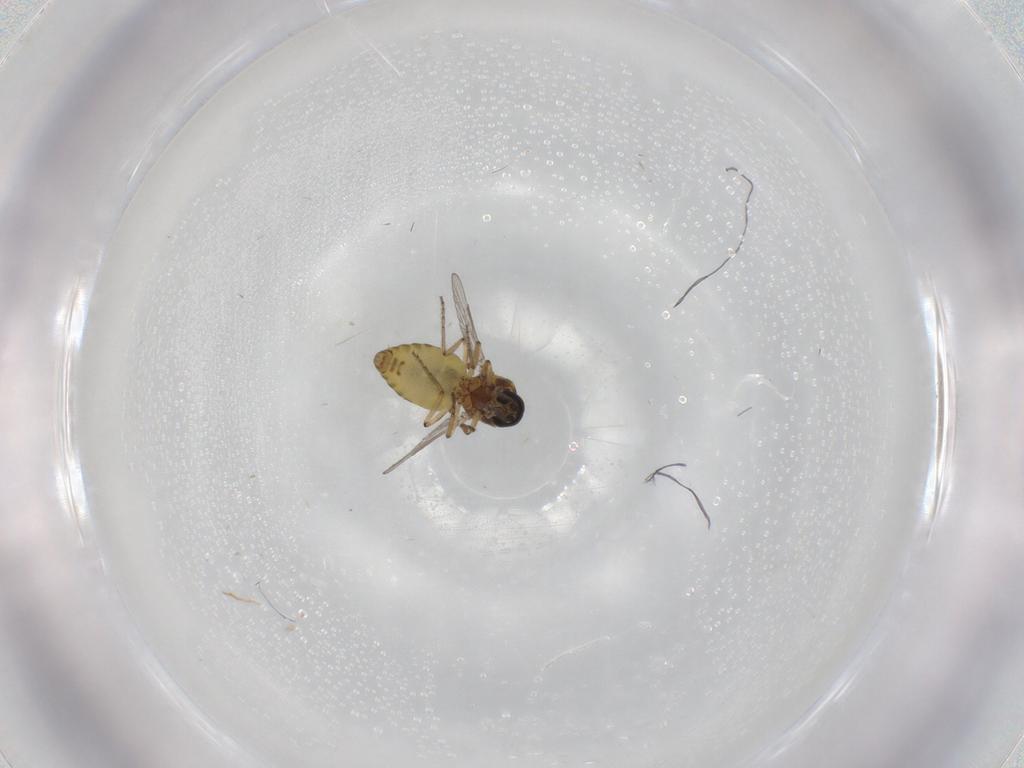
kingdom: Animalia
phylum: Arthropoda
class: Insecta
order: Diptera
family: Ceratopogonidae
